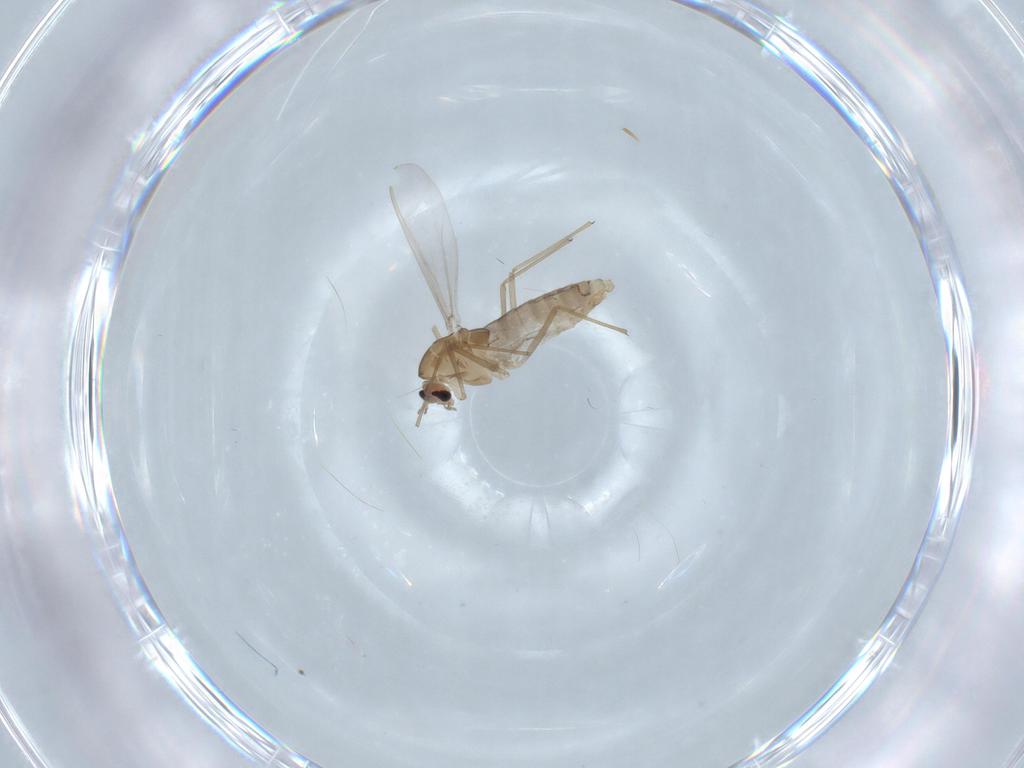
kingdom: Animalia
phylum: Arthropoda
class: Insecta
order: Diptera
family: Chironomidae
